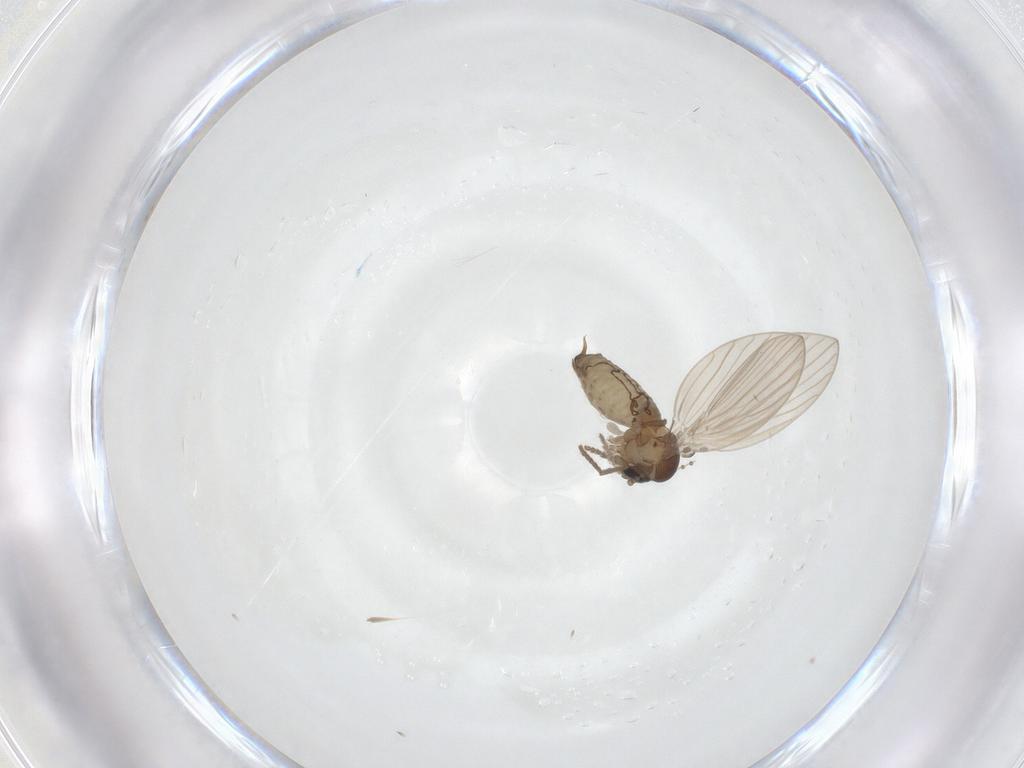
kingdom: Animalia
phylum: Arthropoda
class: Insecta
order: Diptera
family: Psychodidae
